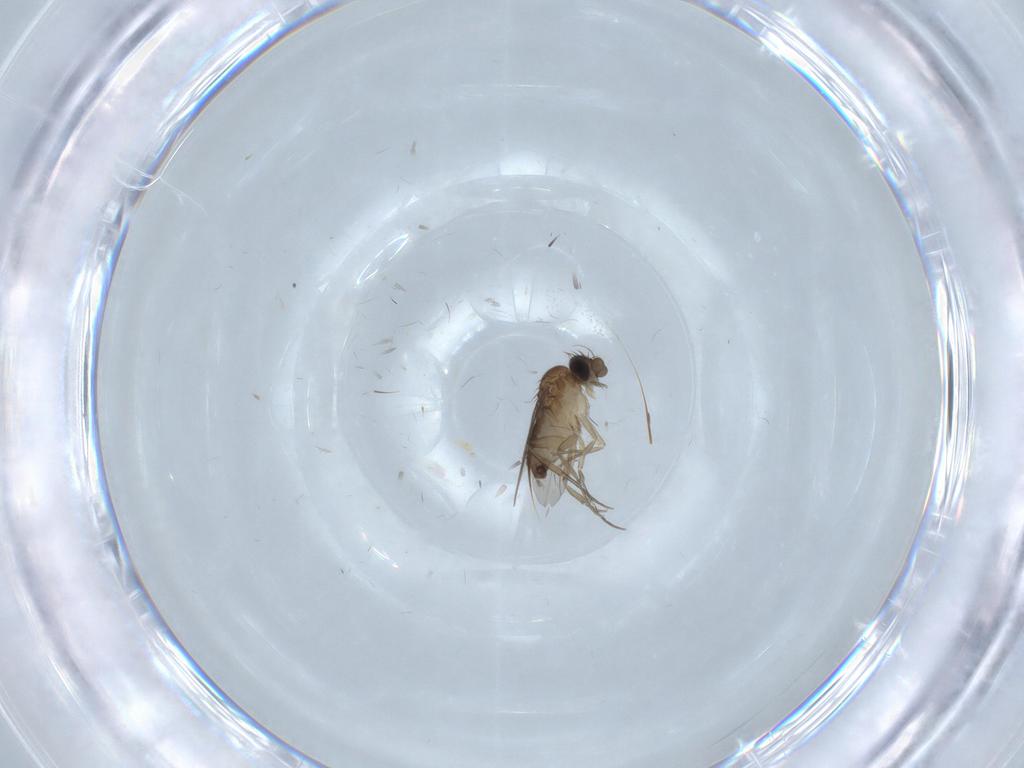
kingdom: Animalia
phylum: Arthropoda
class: Insecta
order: Diptera
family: Phoridae
